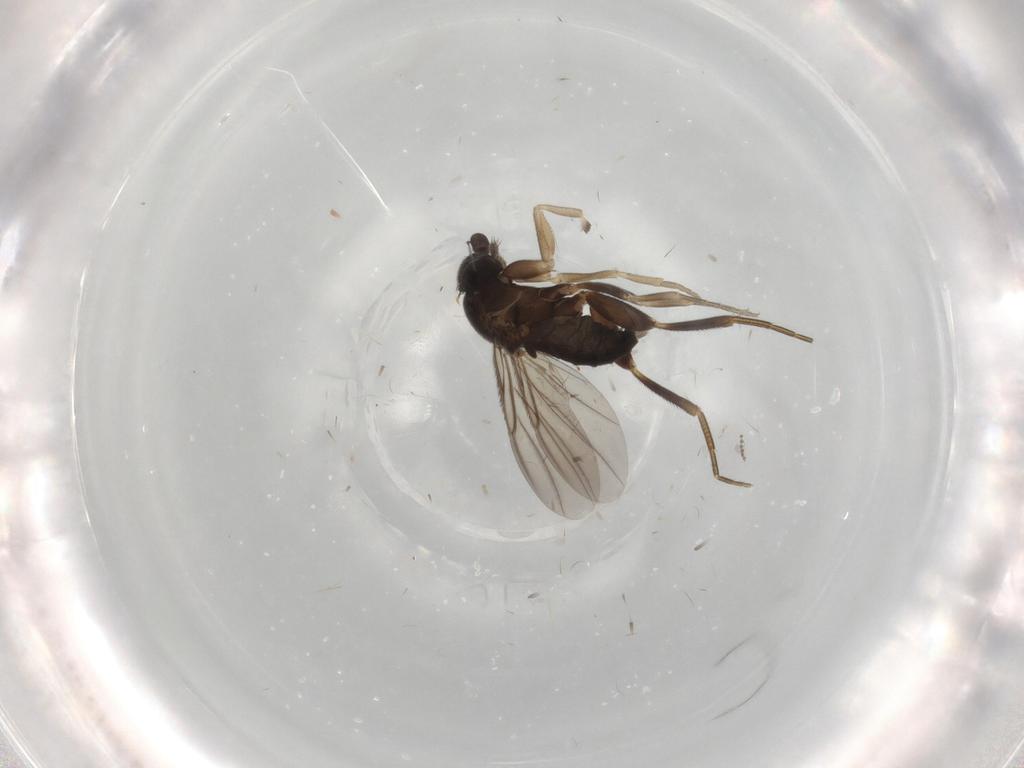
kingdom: Animalia
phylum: Arthropoda
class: Insecta
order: Diptera
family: Phoridae
